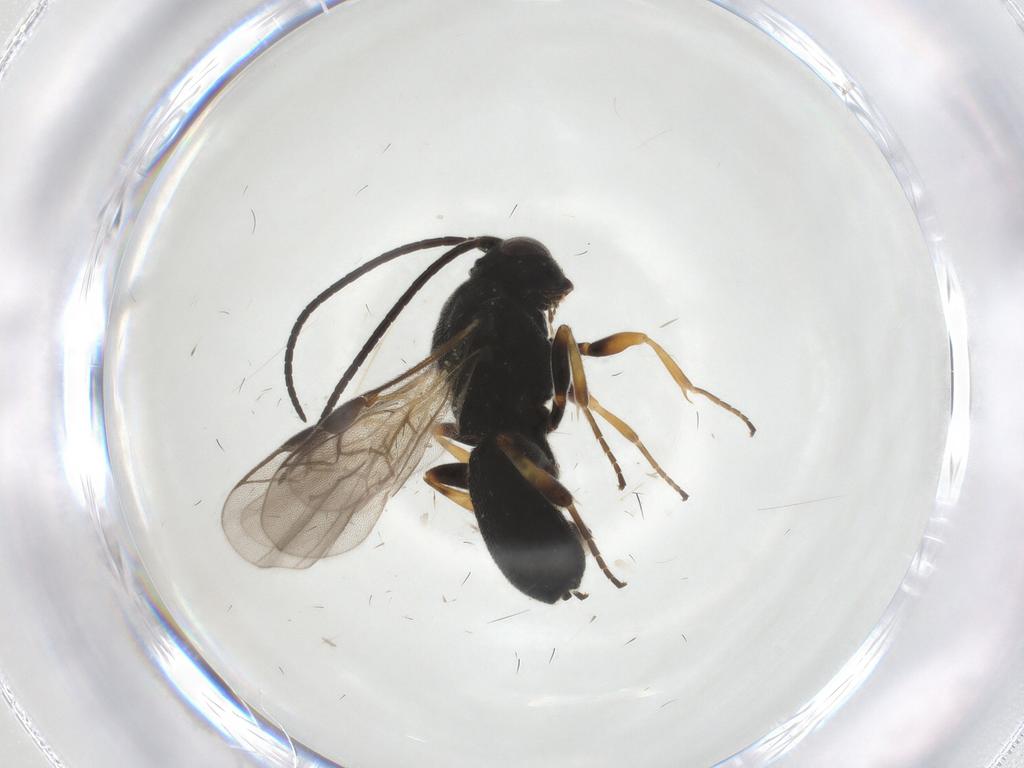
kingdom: Animalia
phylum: Arthropoda
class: Insecta
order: Hymenoptera
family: Braconidae
